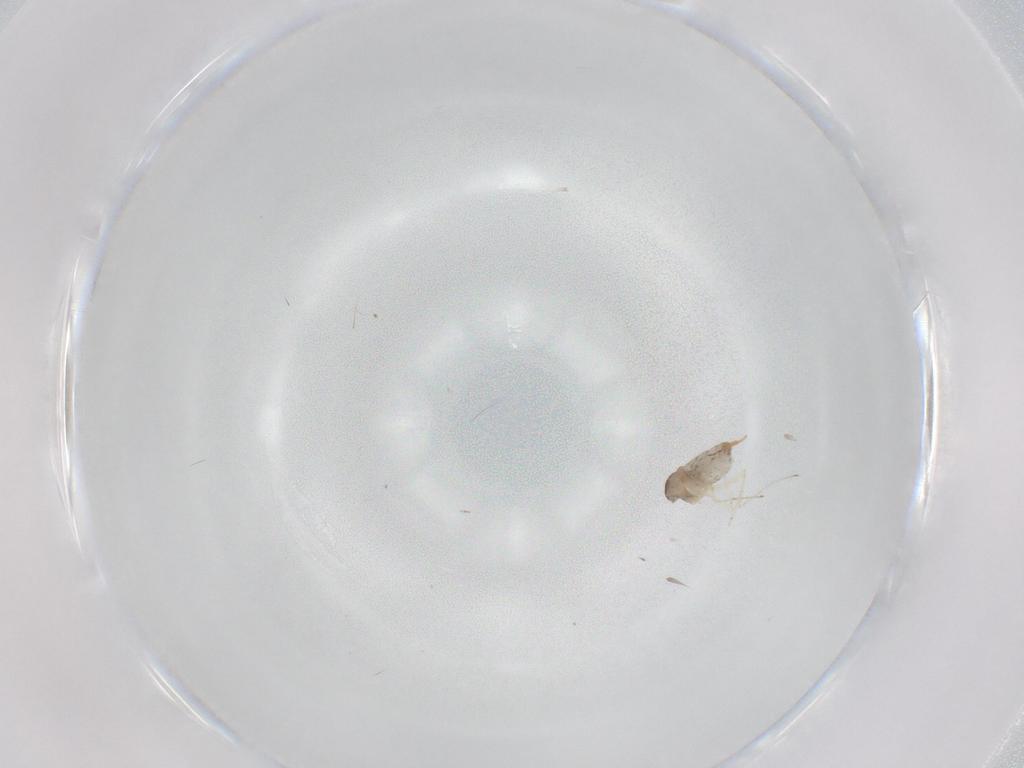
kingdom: Animalia
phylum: Arthropoda
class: Insecta
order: Diptera
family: Cecidomyiidae
